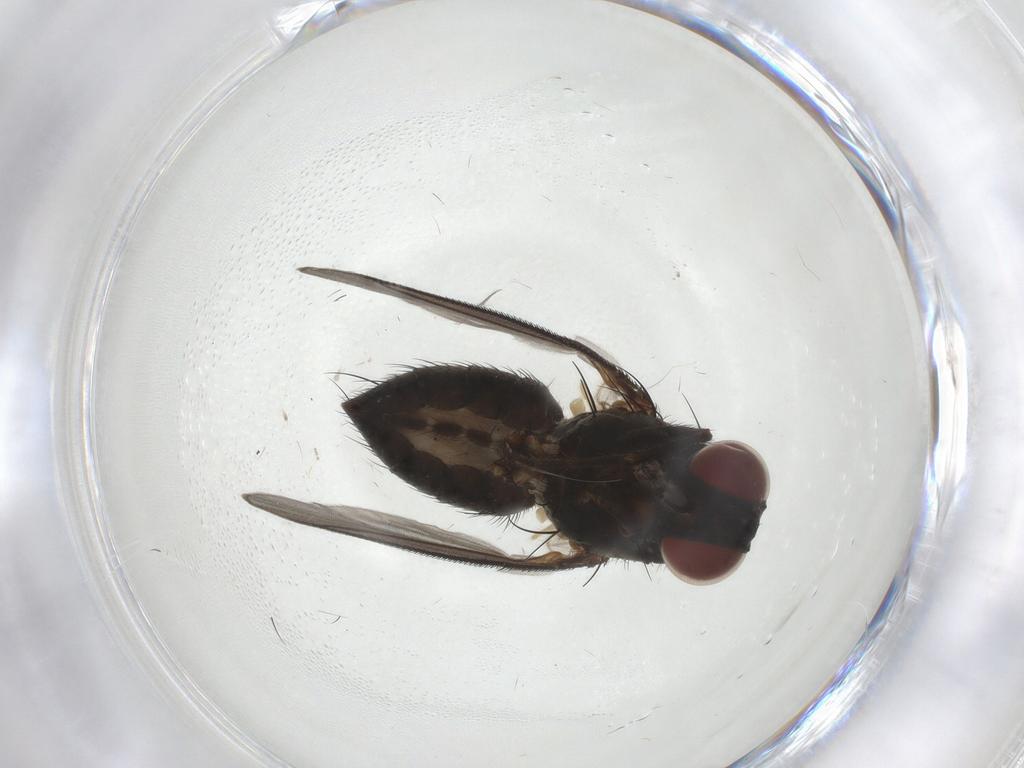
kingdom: Animalia
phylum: Arthropoda
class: Insecta
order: Diptera
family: Muscidae
